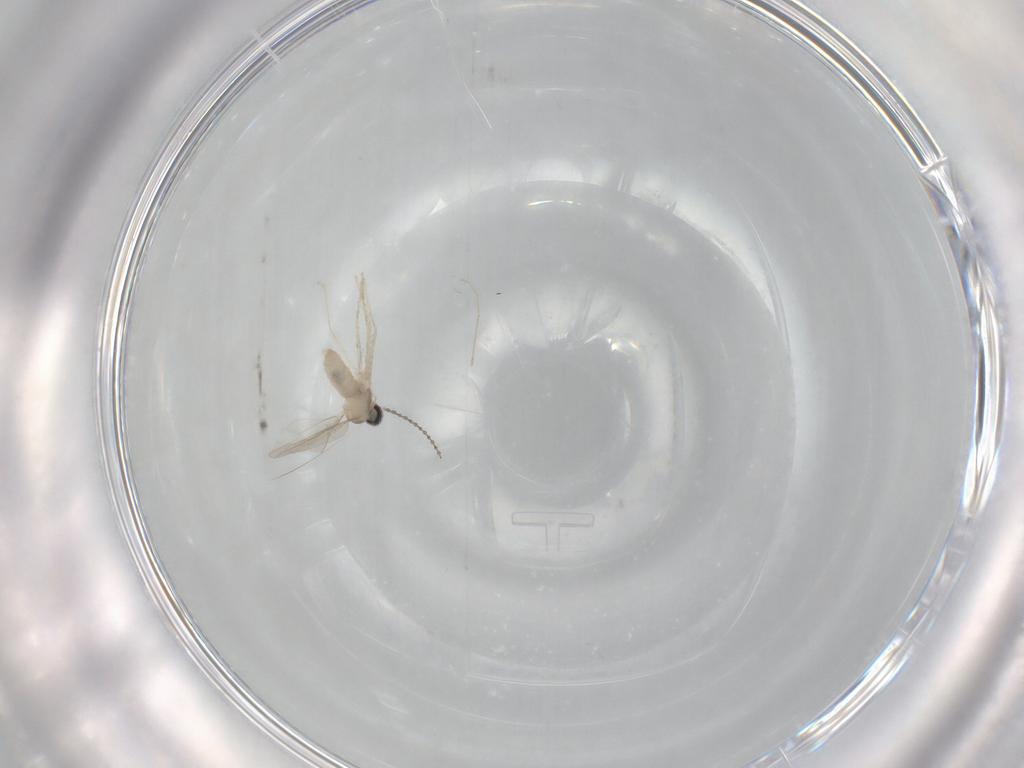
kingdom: Animalia
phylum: Arthropoda
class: Insecta
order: Diptera
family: Cecidomyiidae
